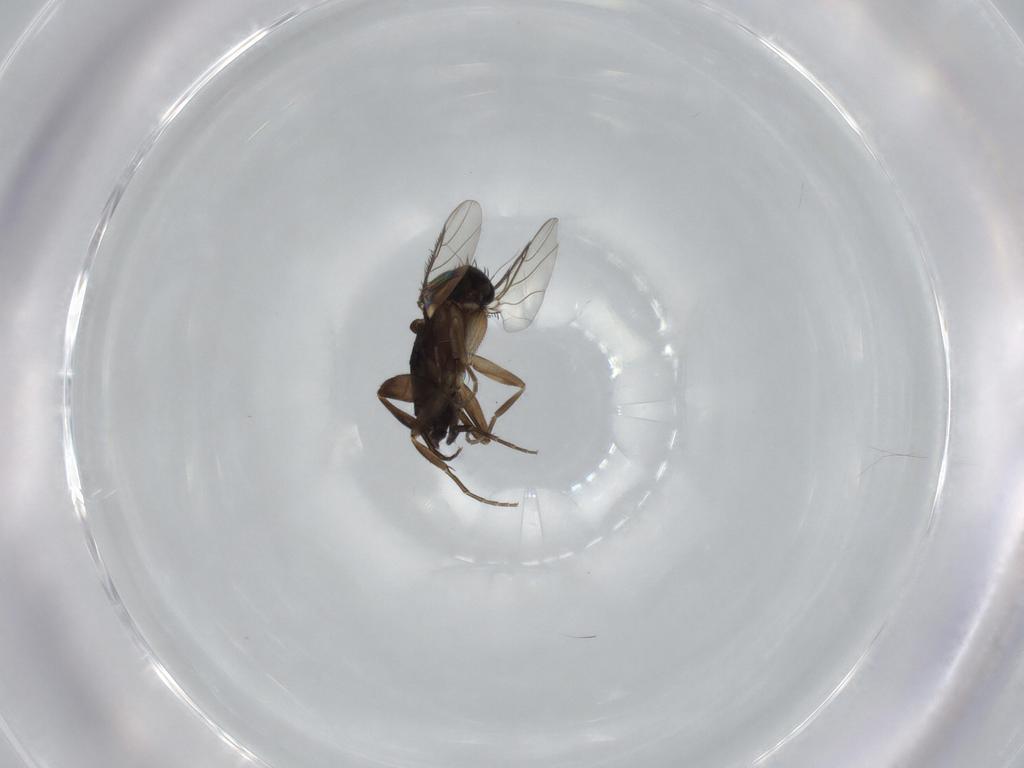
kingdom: Animalia
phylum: Arthropoda
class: Insecta
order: Diptera
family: Phoridae
